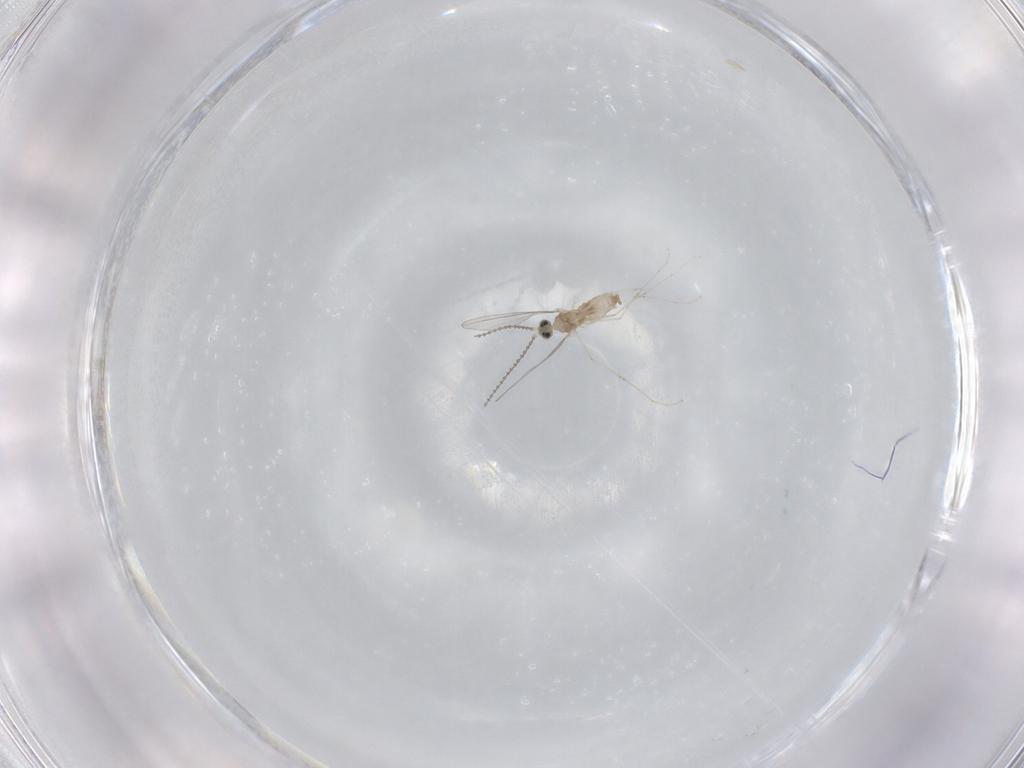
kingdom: Animalia
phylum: Arthropoda
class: Insecta
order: Diptera
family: Cecidomyiidae
